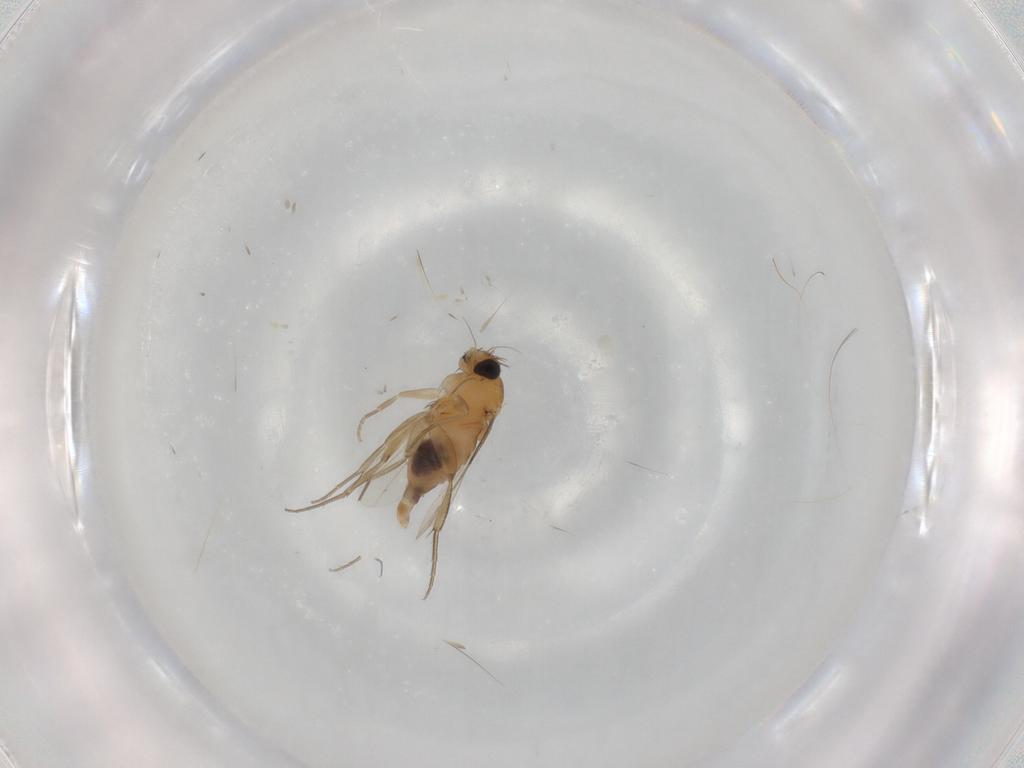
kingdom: Animalia
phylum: Arthropoda
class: Insecta
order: Diptera
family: Phoridae
